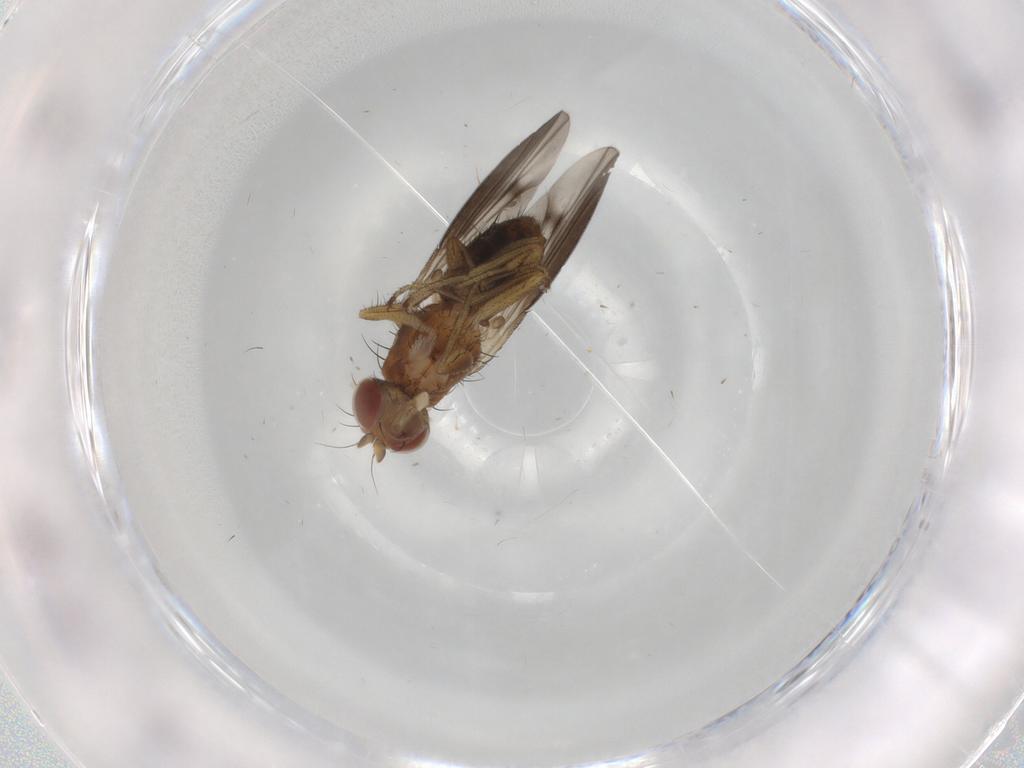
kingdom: Animalia
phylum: Arthropoda
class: Insecta
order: Diptera
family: Heleomyzidae
